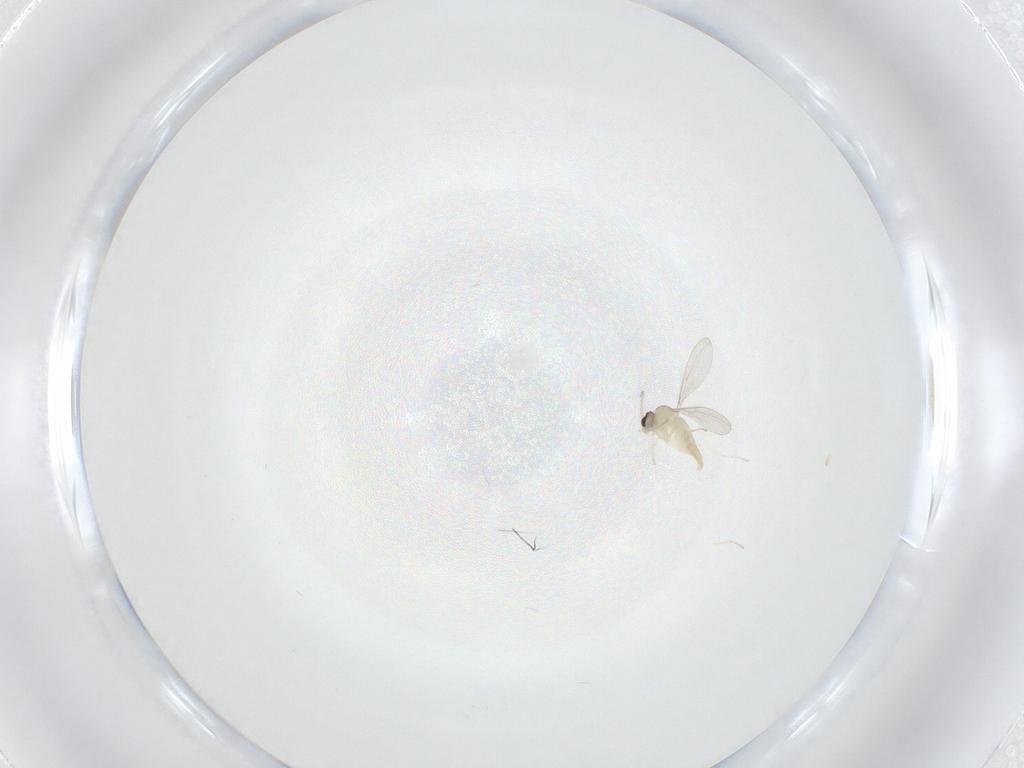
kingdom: Animalia
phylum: Arthropoda
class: Insecta
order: Diptera
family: Cecidomyiidae
